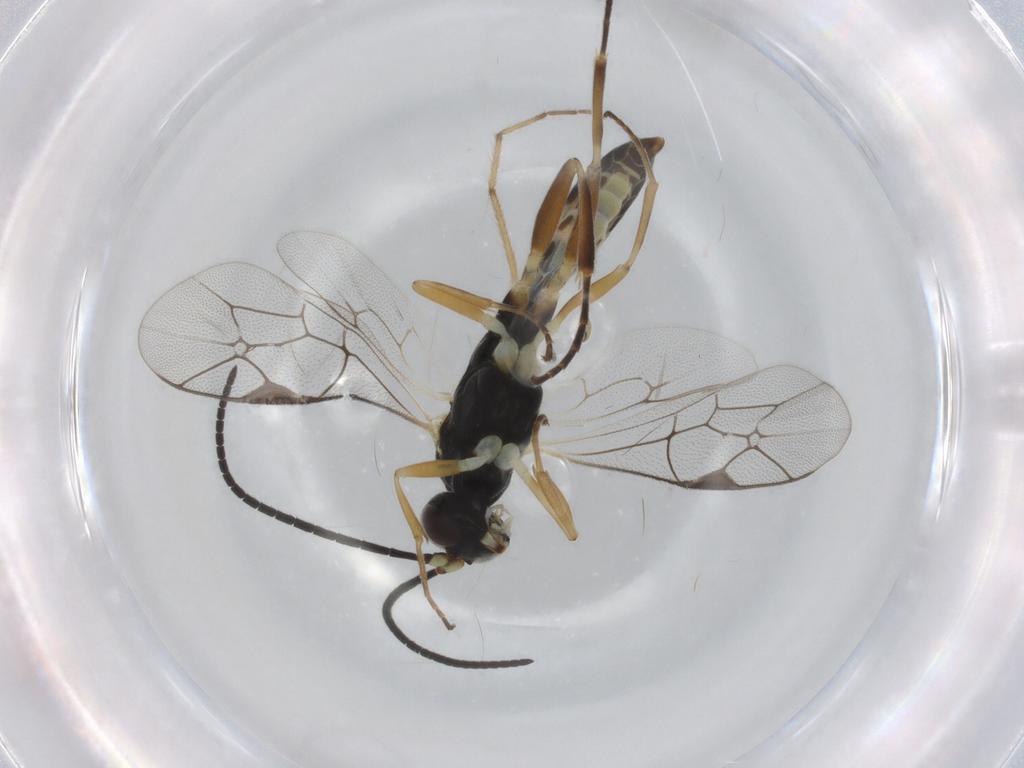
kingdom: Animalia
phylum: Arthropoda
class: Insecta
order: Hymenoptera
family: Ichneumonidae
